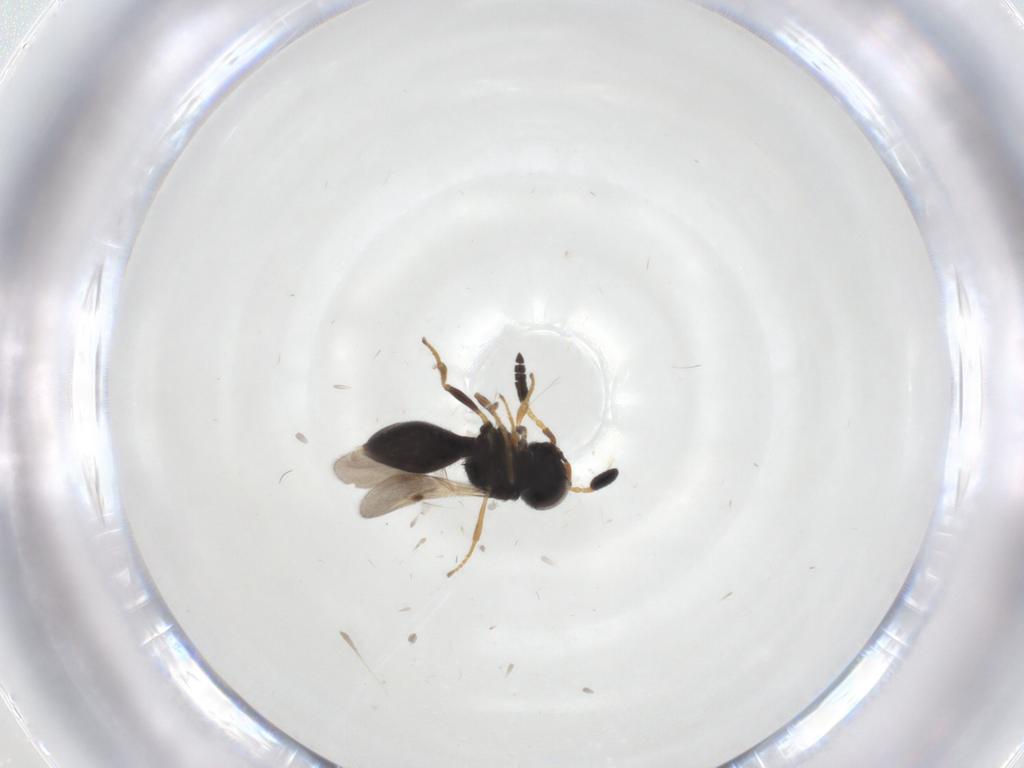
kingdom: Animalia
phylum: Arthropoda
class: Insecta
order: Hymenoptera
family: Scelionidae
